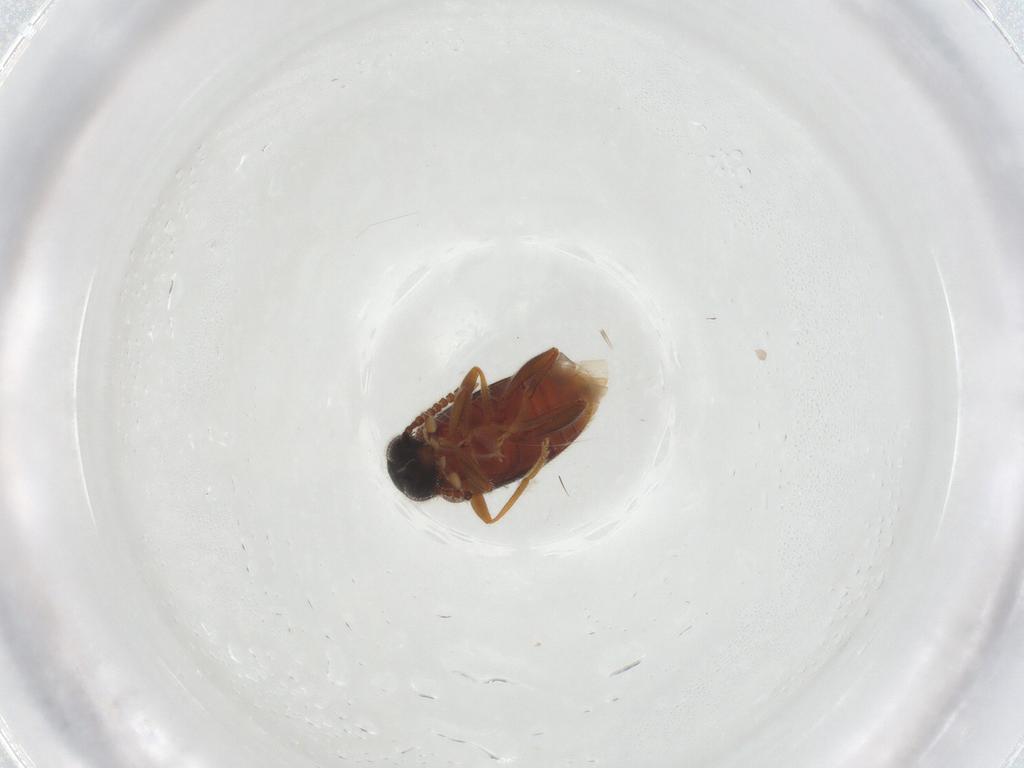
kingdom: Animalia
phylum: Arthropoda
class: Insecta
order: Coleoptera
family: Aderidae
